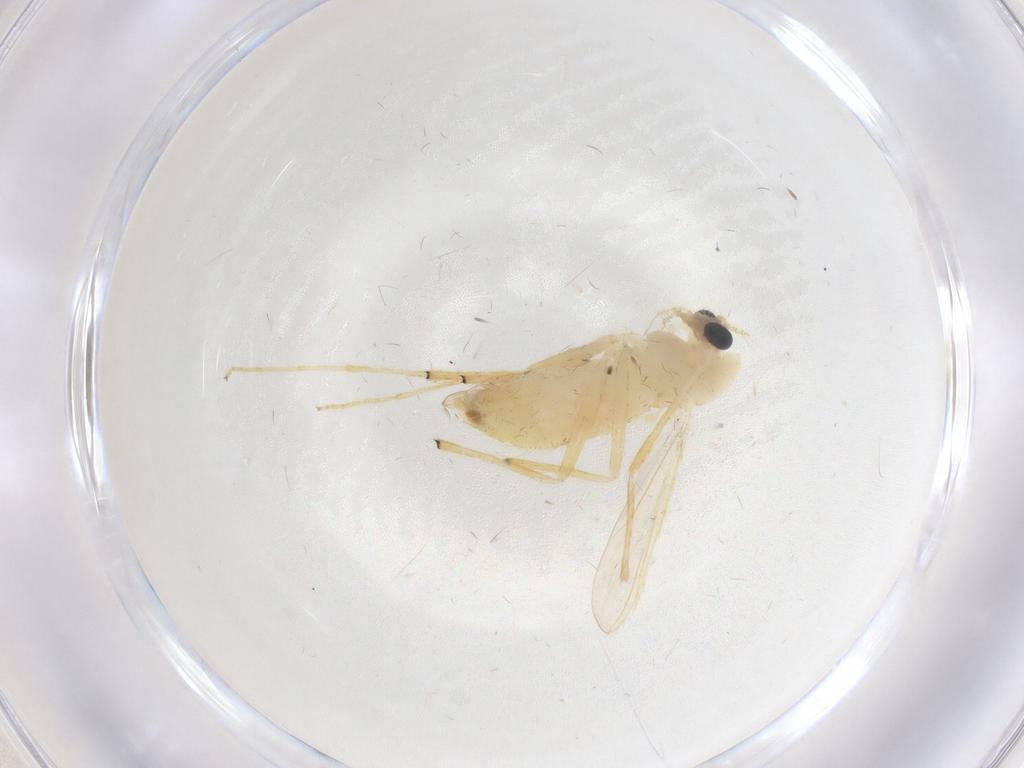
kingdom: Animalia
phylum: Arthropoda
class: Insecta
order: Diptera
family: Chironomidae
